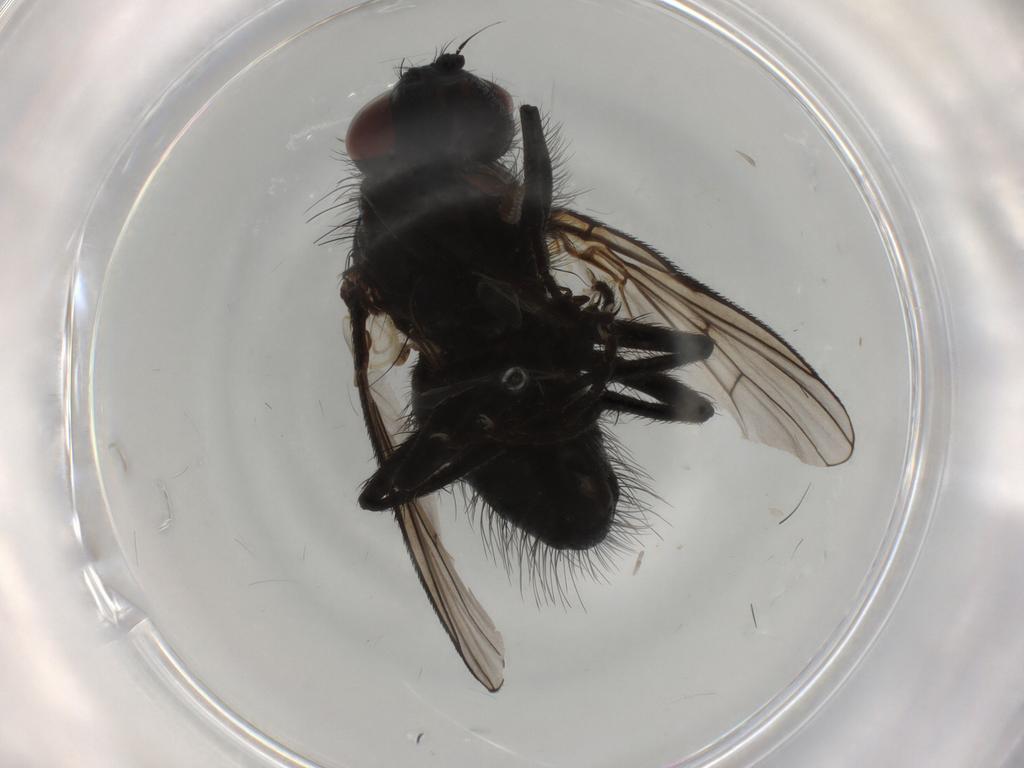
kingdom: Animalia
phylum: Arthropoda
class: Insecta
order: Diptera
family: Muscidae
